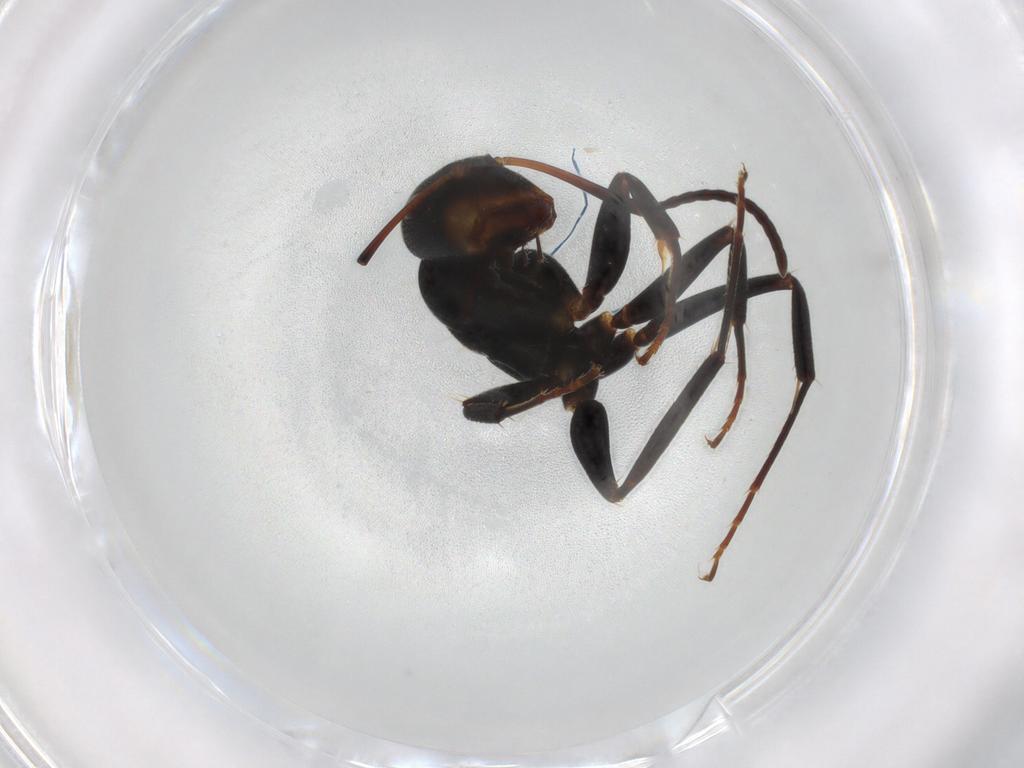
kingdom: Animalia
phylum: Arthropoda
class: Insecta
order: Hymenoptera
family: Formicidae
